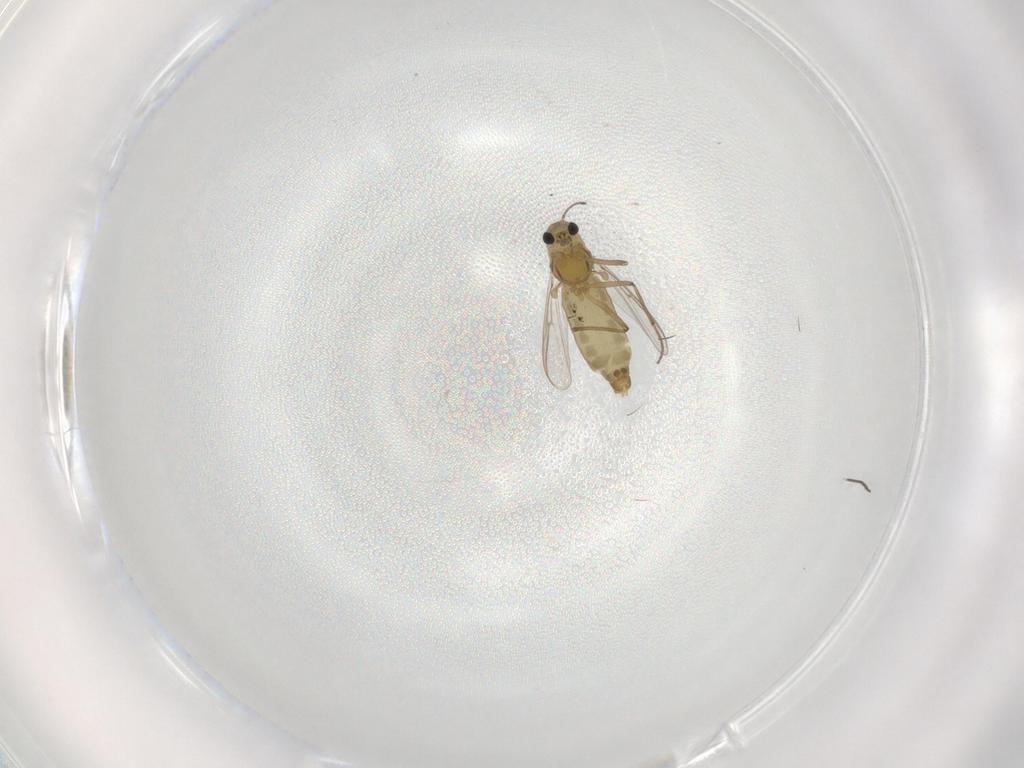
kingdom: Animalia
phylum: Arthropoda
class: Insecta
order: Diptera
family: Chironomidae
